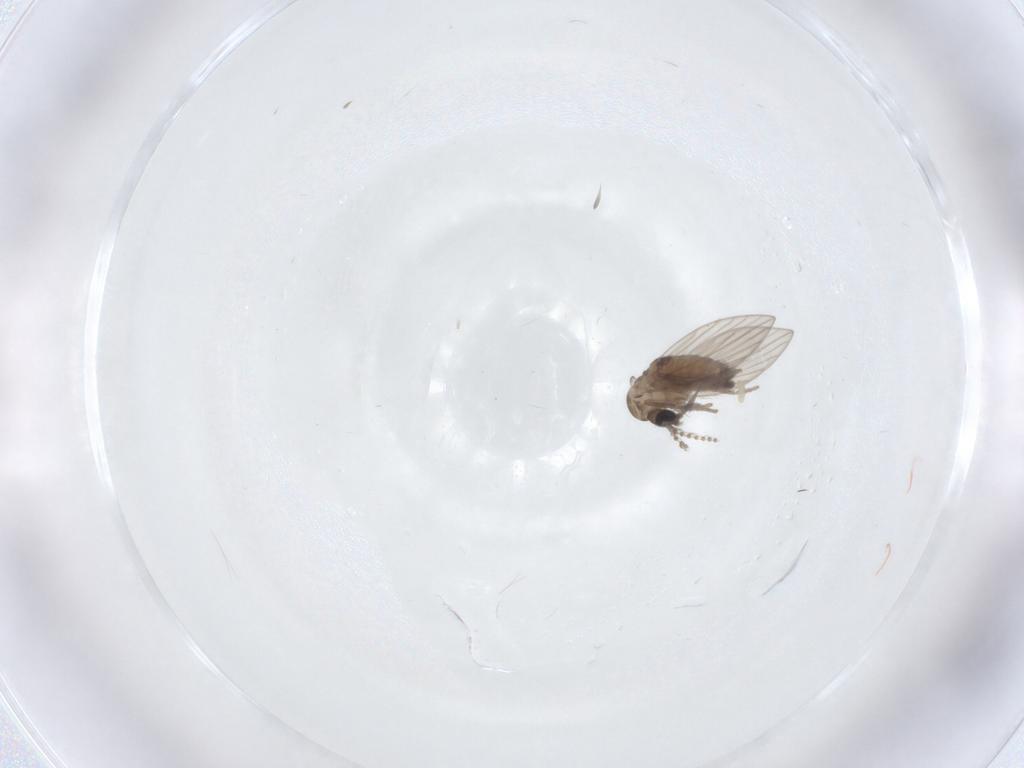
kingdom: Animalia
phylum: Arthropoda
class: Insecta
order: Diptera
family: Psychodidae
